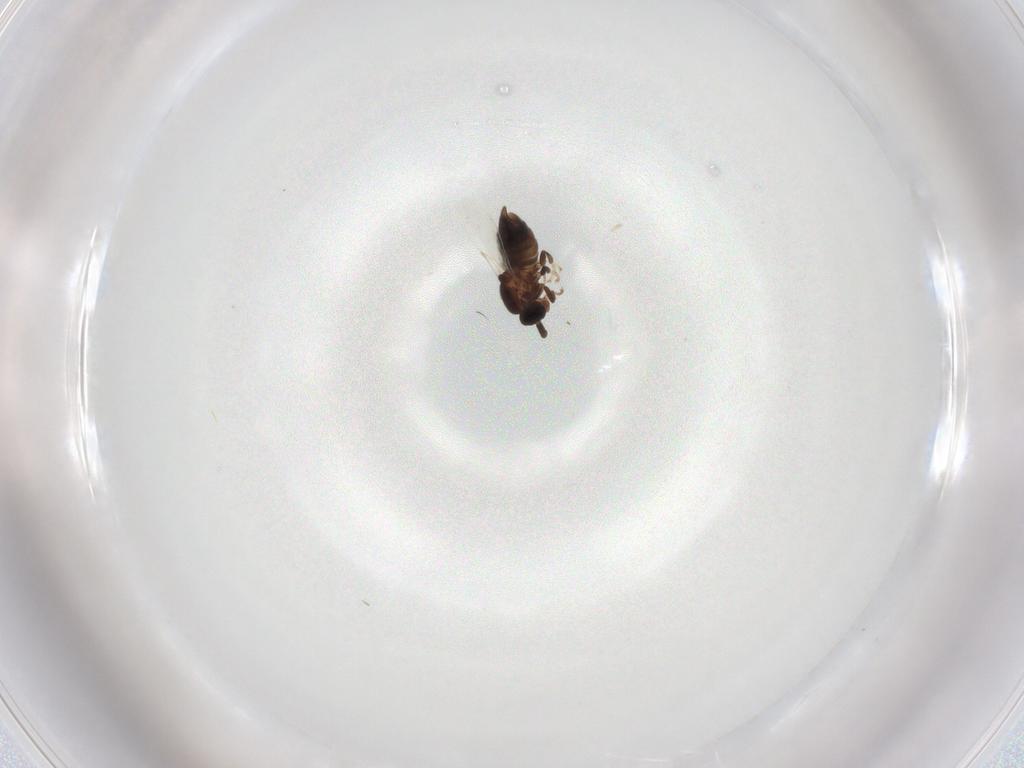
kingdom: Animalia
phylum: Arthropoda
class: Insecta
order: Diptera
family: Scatopsidae
